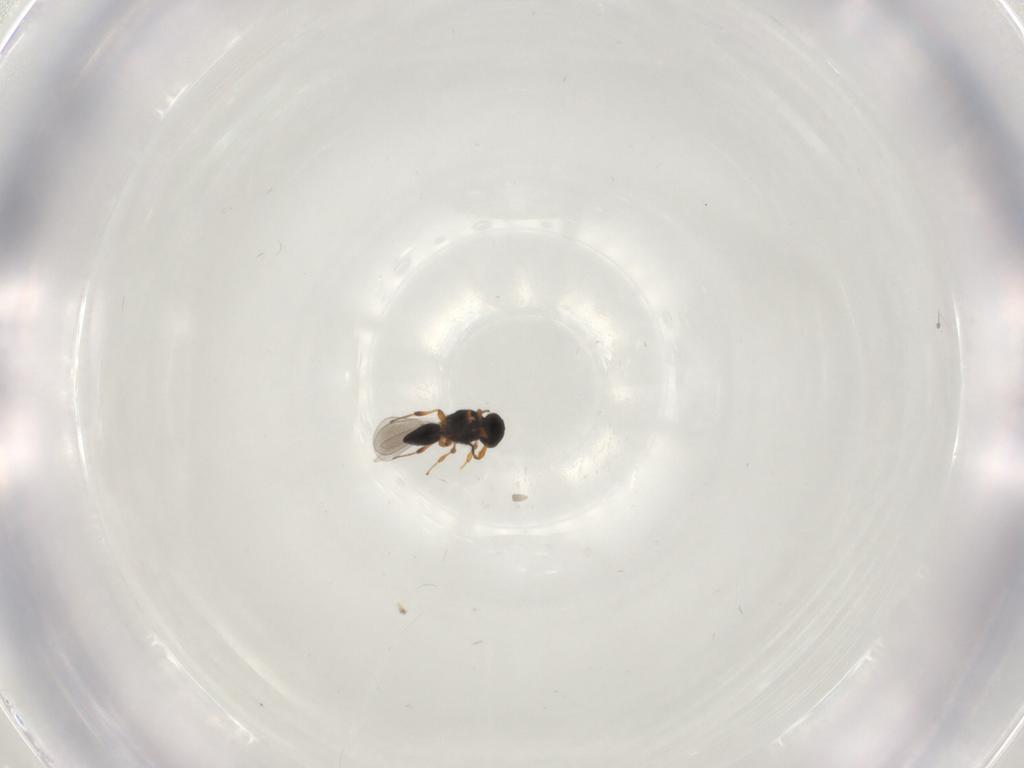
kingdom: Animalia
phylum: Arthropoda
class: Insecta
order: Hymenoptera
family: Platygastridae
